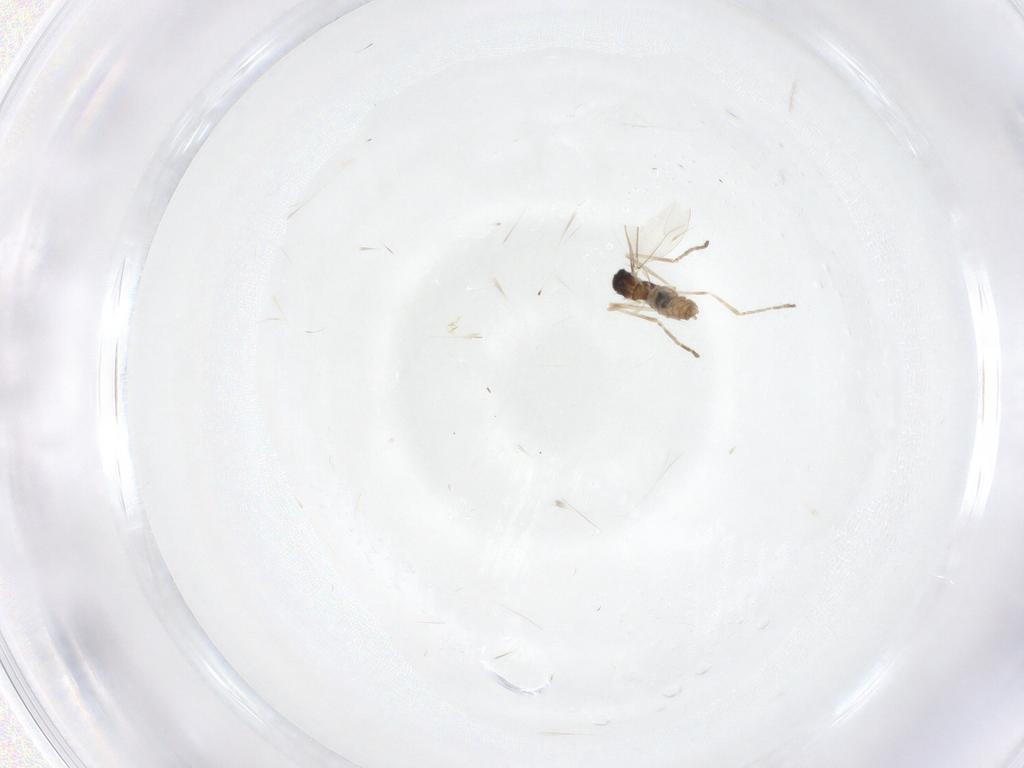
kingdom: Animalia
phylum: Arthropoda
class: Insecta
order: Diptera
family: Cecidomyiidae
